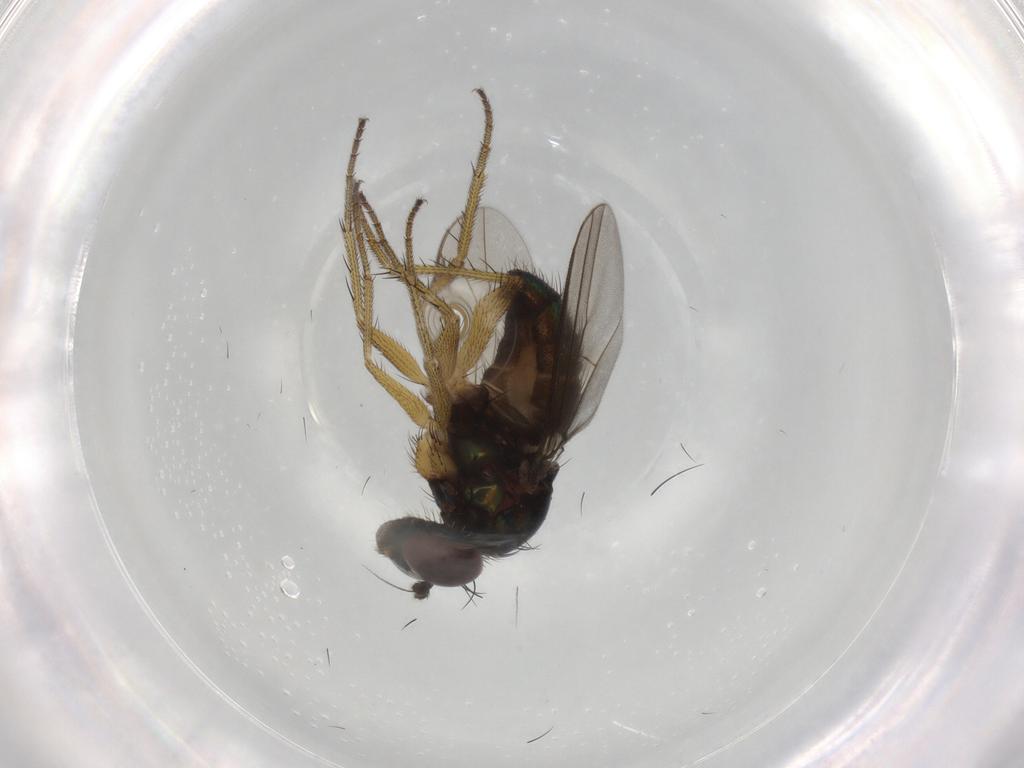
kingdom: Animalia
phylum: Arthropoda
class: Insecta
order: Diptera
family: Dolichopodidae
